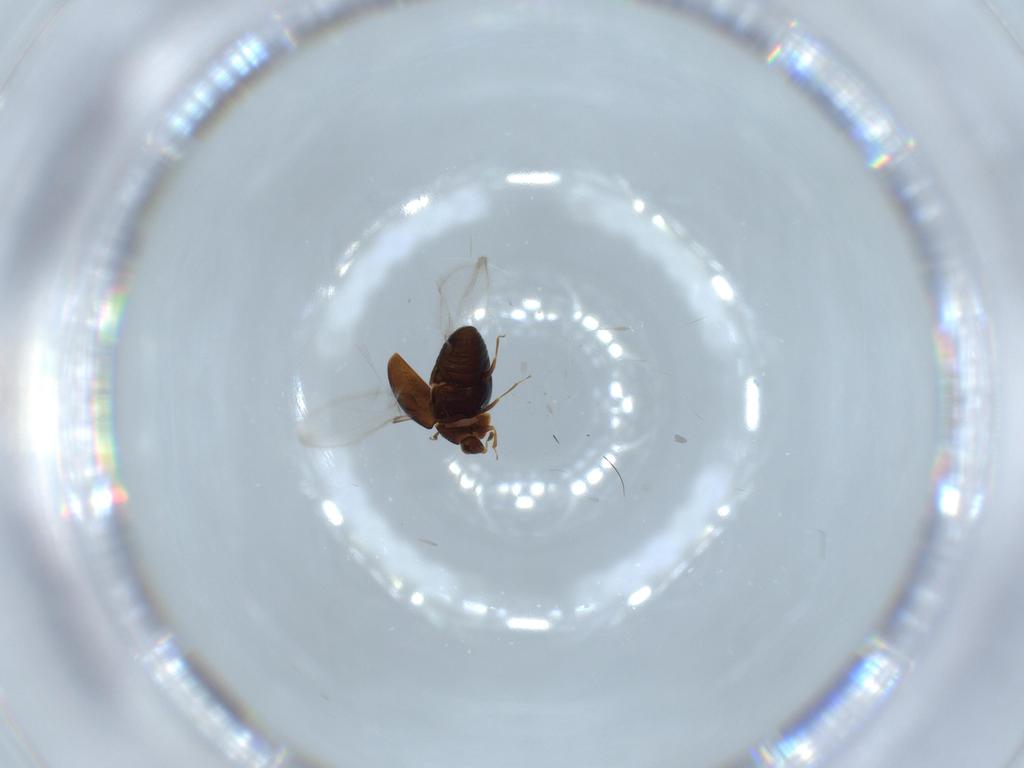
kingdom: Animalia
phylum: Arthropoda
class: Insecta
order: Coleoptera
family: Corylophidae
